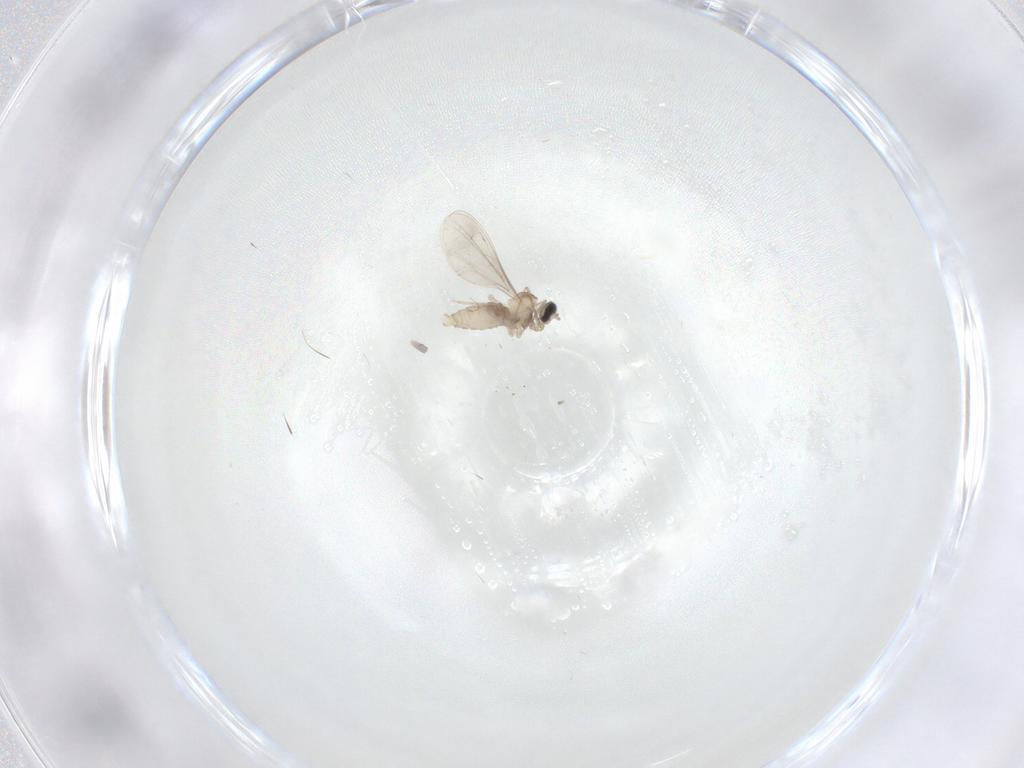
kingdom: Animalia
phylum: Arthropoda
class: Insecta
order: Diptera
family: Cecidomyiidae
